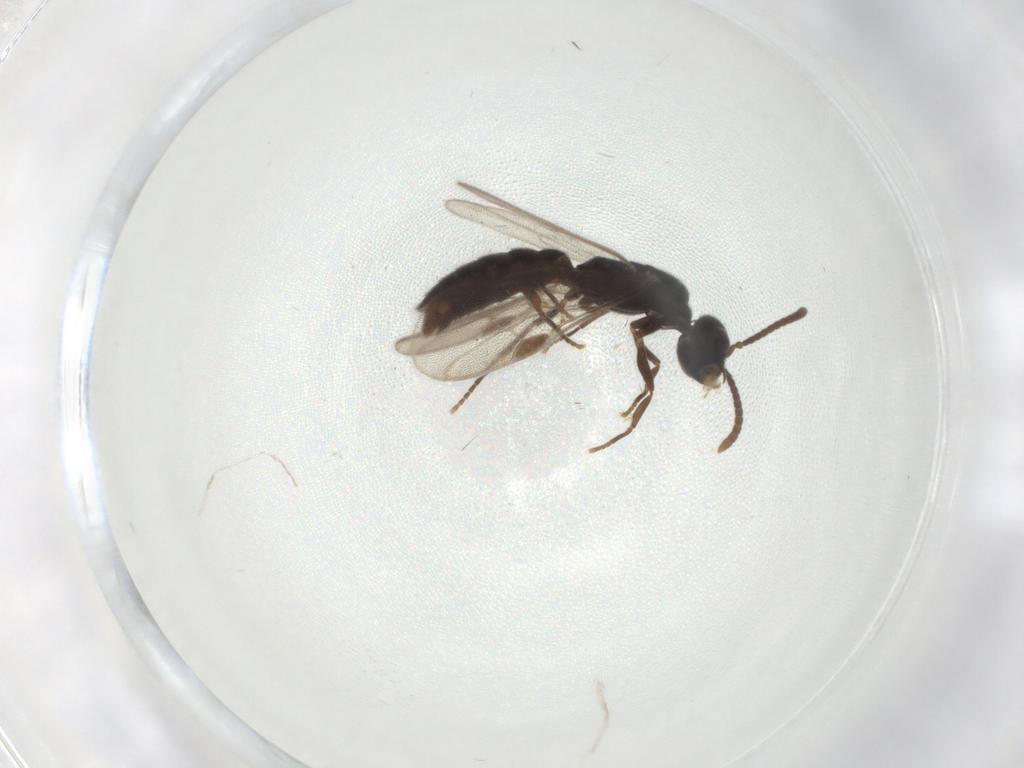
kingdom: Animalia
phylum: Arthropoda
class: Insecta
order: Hymenoptera
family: Formicidae
